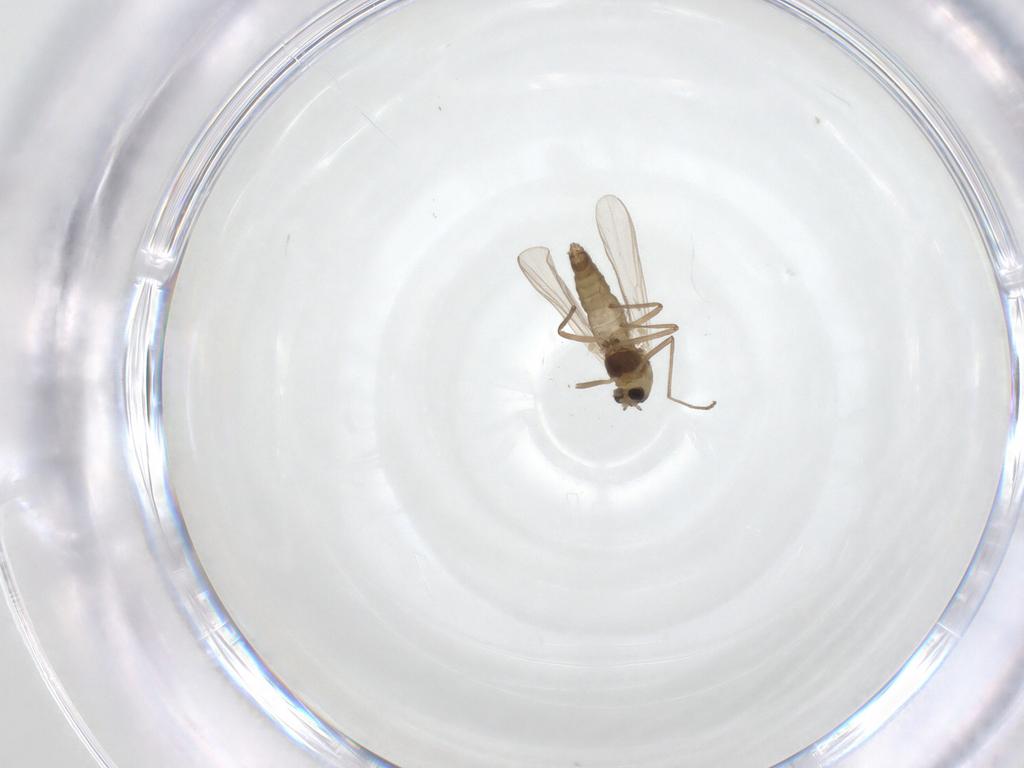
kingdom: Animalia
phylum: Arthropoda
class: Insecta
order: Diptera
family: Chironomidae
